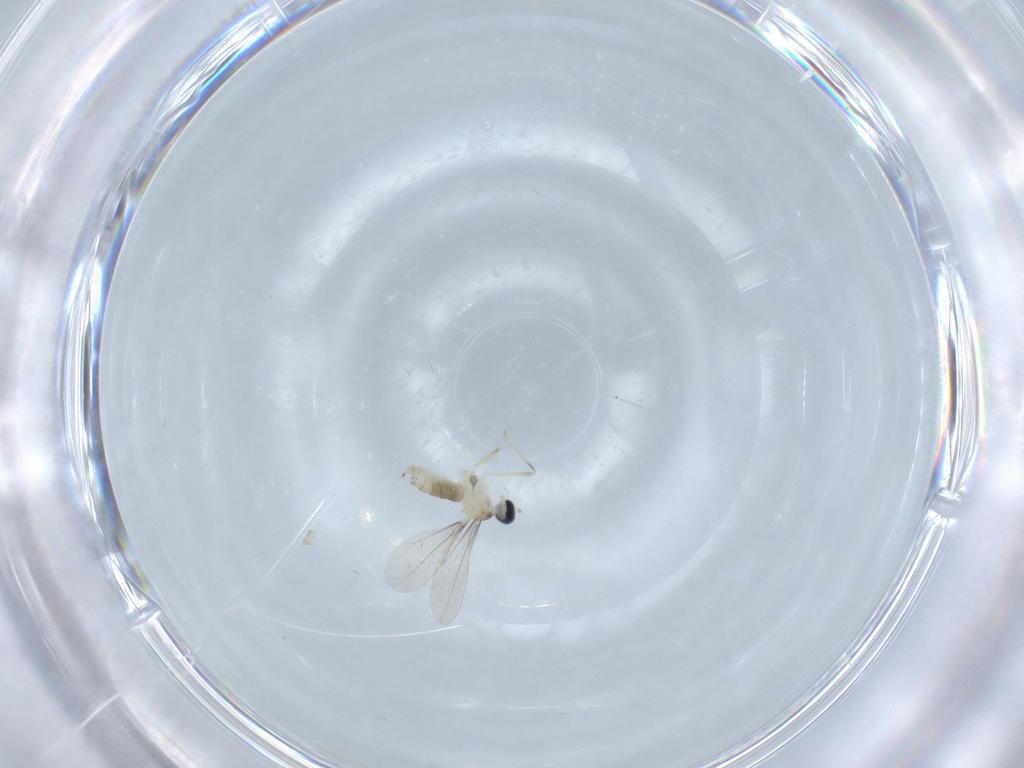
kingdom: Animalia
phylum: Arthropoda
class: Insecta
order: Diptera
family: Cecidomyiidae
